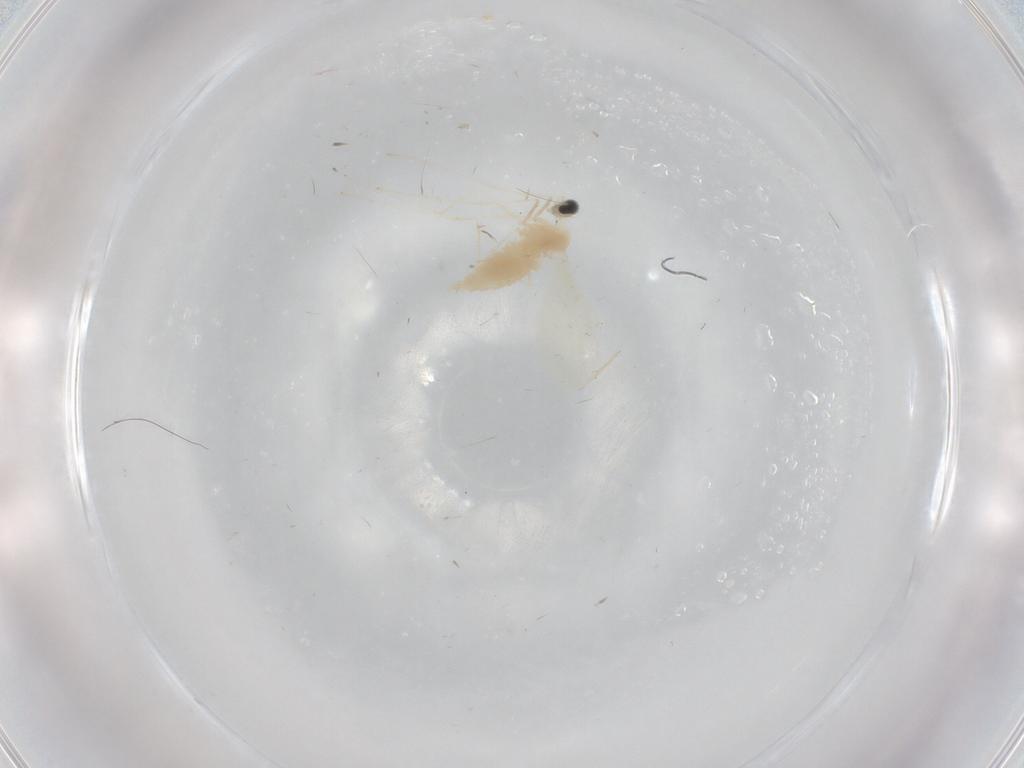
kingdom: Animalia
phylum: Arthropoda
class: Insecta
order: Diptera
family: Cecidomyiidae
